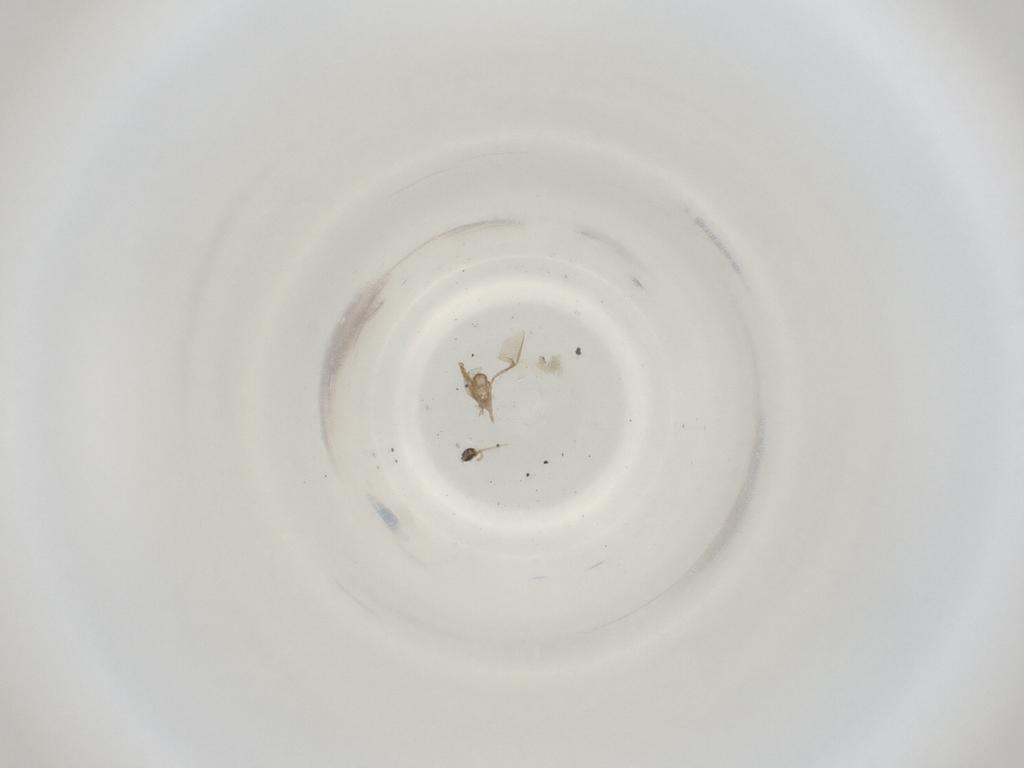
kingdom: Animalia
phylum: Arthropoda
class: Insecta
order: Diptera
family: Cecidomyiidae
